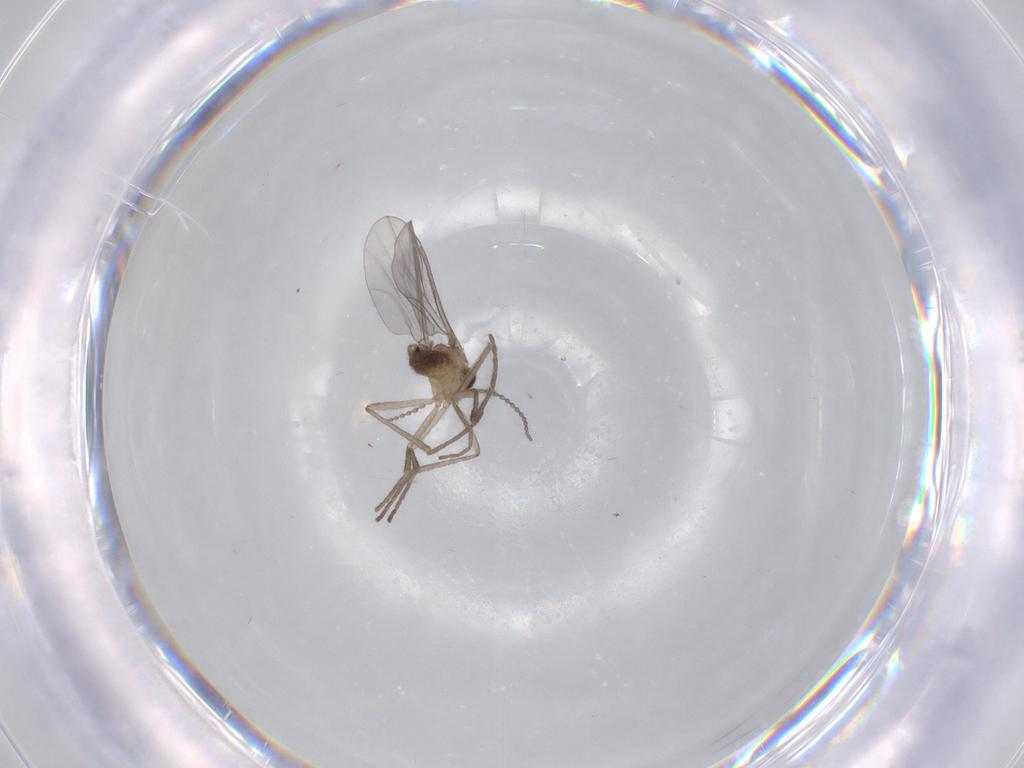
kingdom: Animalia
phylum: Arthropoda
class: Insecta
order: Diptera
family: Cecidomyiidae
